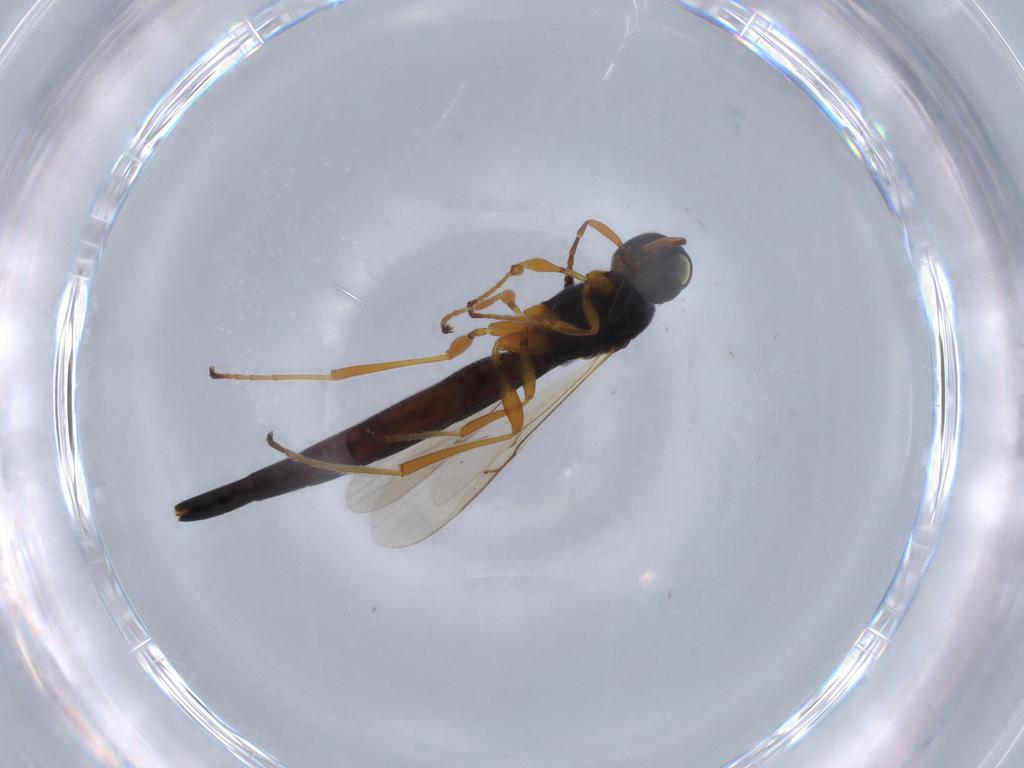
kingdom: Animalia
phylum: Arthropoda
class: Insecta
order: Hymenoptera
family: Scelionidae
